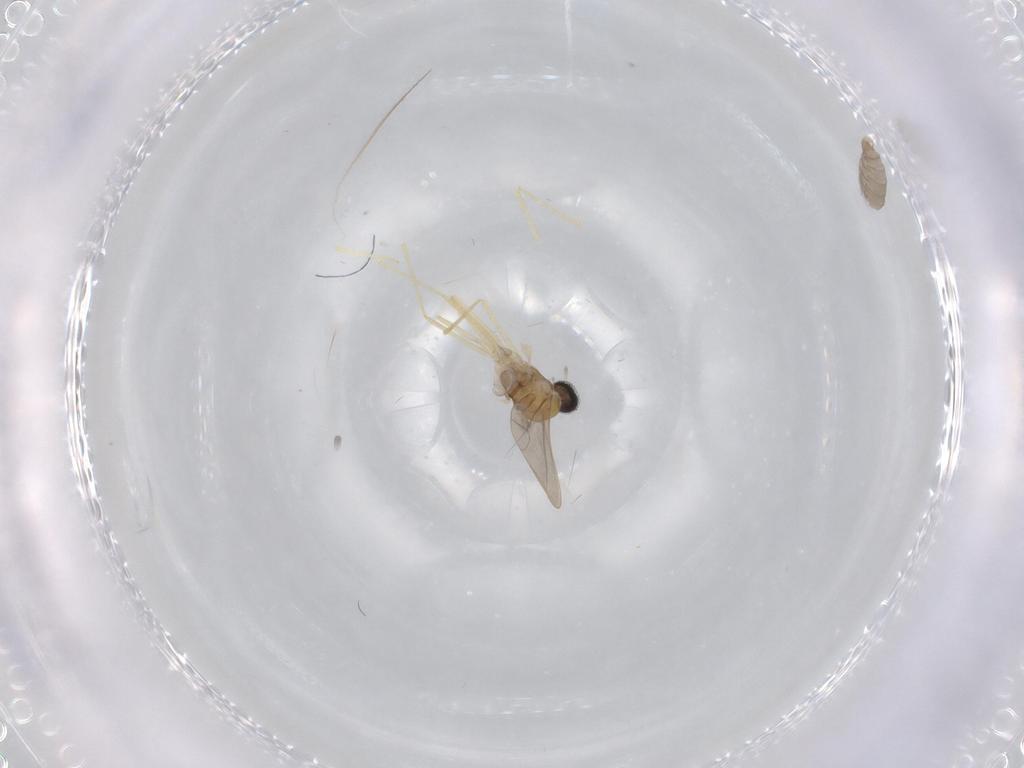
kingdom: Animalia
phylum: Arthropoda
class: Insecta
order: Diptera
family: Cecidomyiidae
